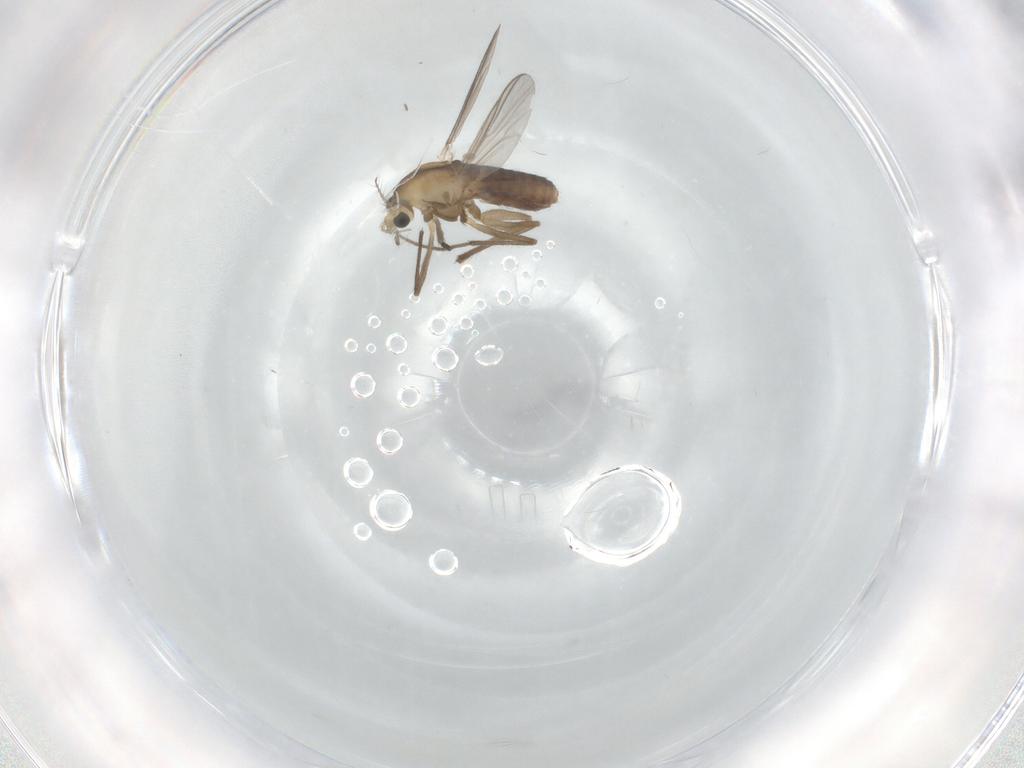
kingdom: Animalia
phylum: Arthropoda
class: Insecta
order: Diptera
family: Chironomidae
